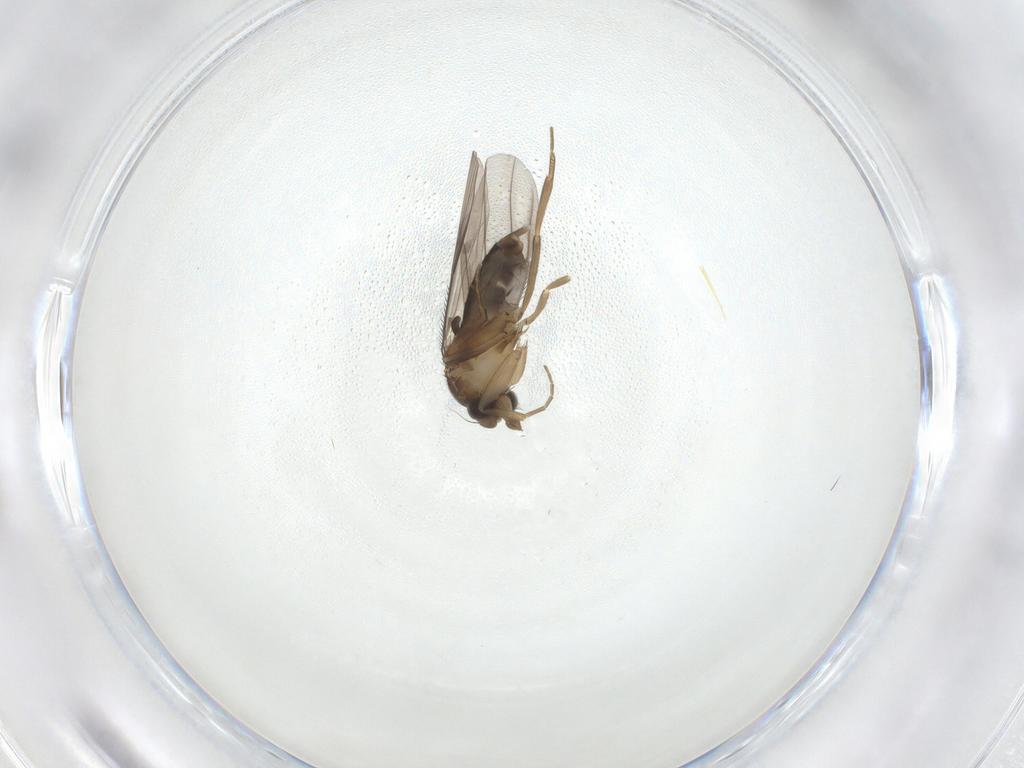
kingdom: Animalia
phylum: Arthropoda
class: Insecta
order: Diptera
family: Phoridae
